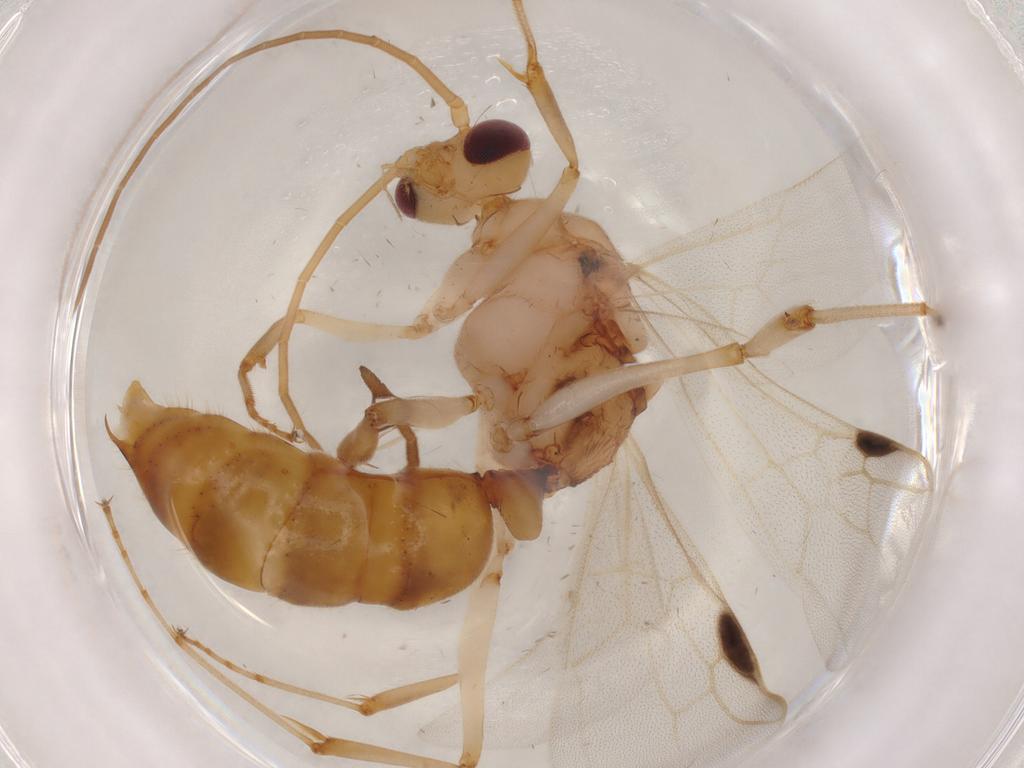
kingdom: Animalia
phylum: Arthropoda
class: Insecta
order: Hymenoptera
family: Formicidae
